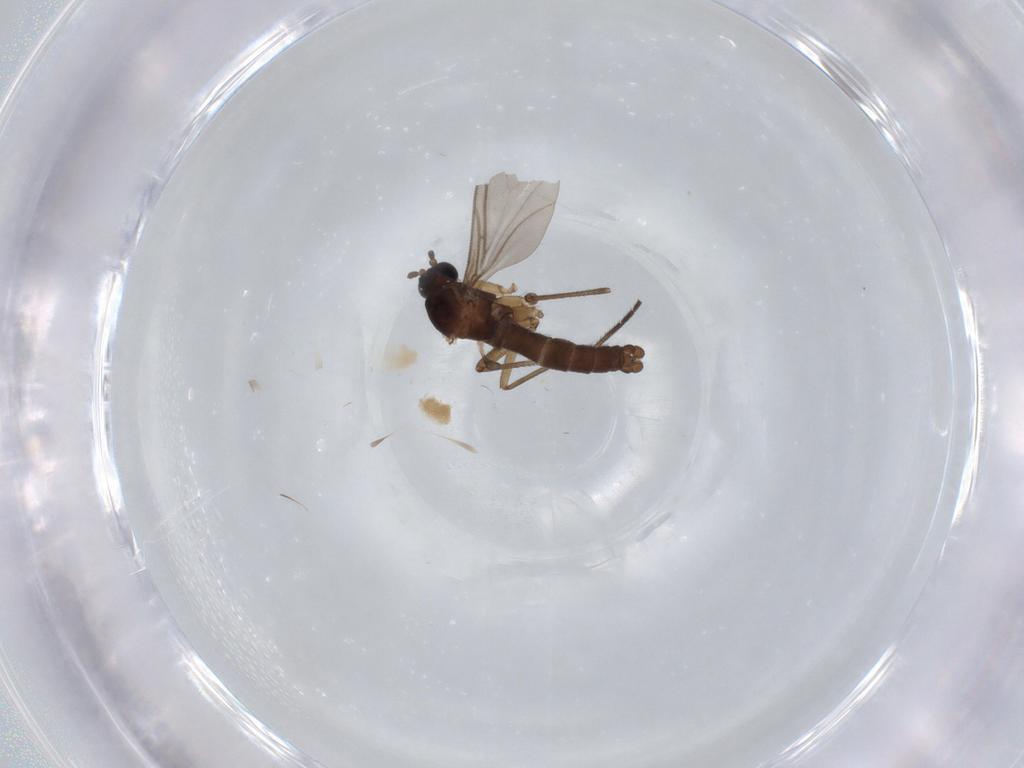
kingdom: Animalia
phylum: Arthropoda
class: Insecta
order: Diptera
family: Sciaridae
